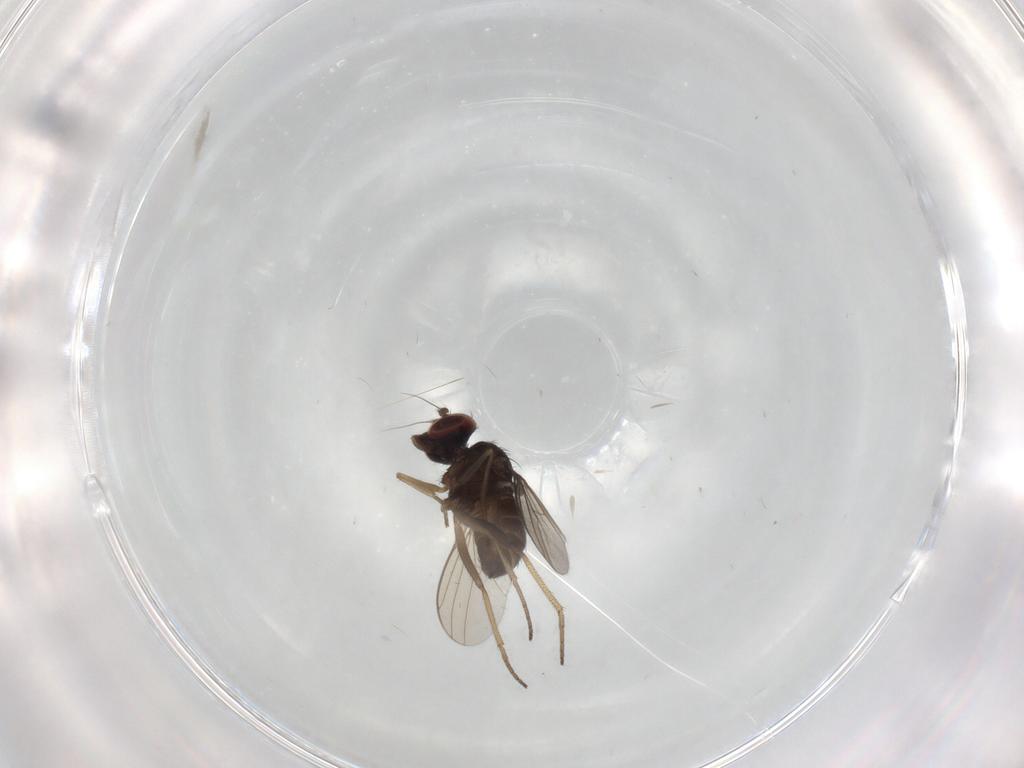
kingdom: Animalia
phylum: Arthropoda
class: Insecta
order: Diptera
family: Dolichopodidae
